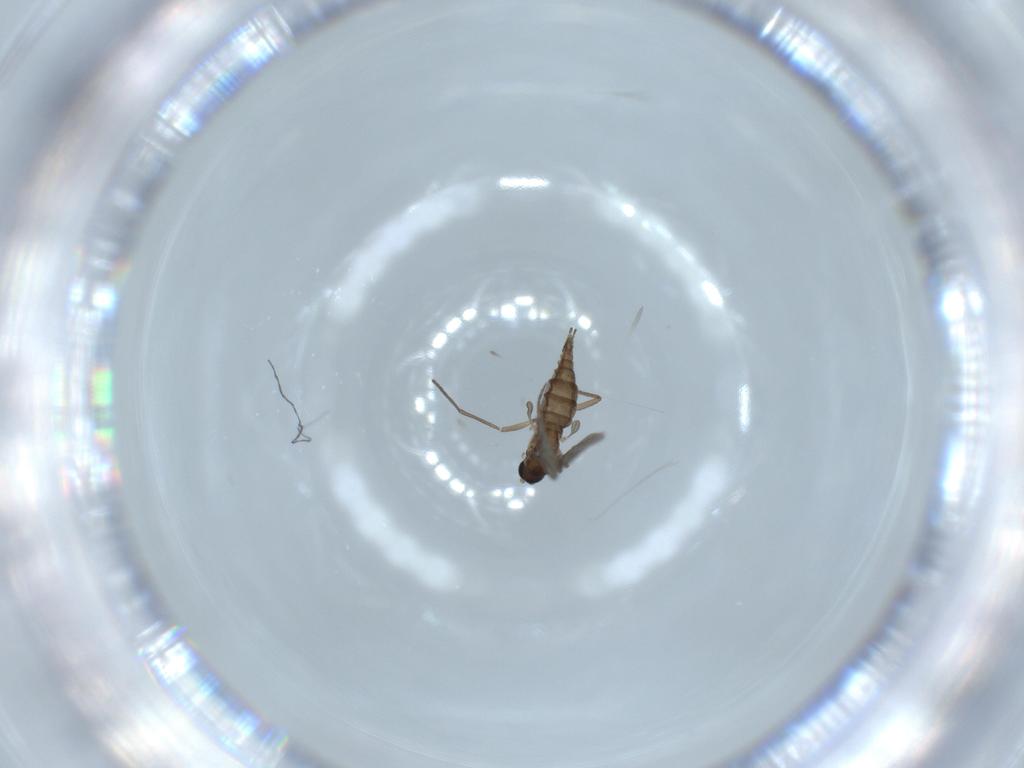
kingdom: Animalia
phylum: Arthropoda
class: Insecta
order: Diptera
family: Sciaridae
